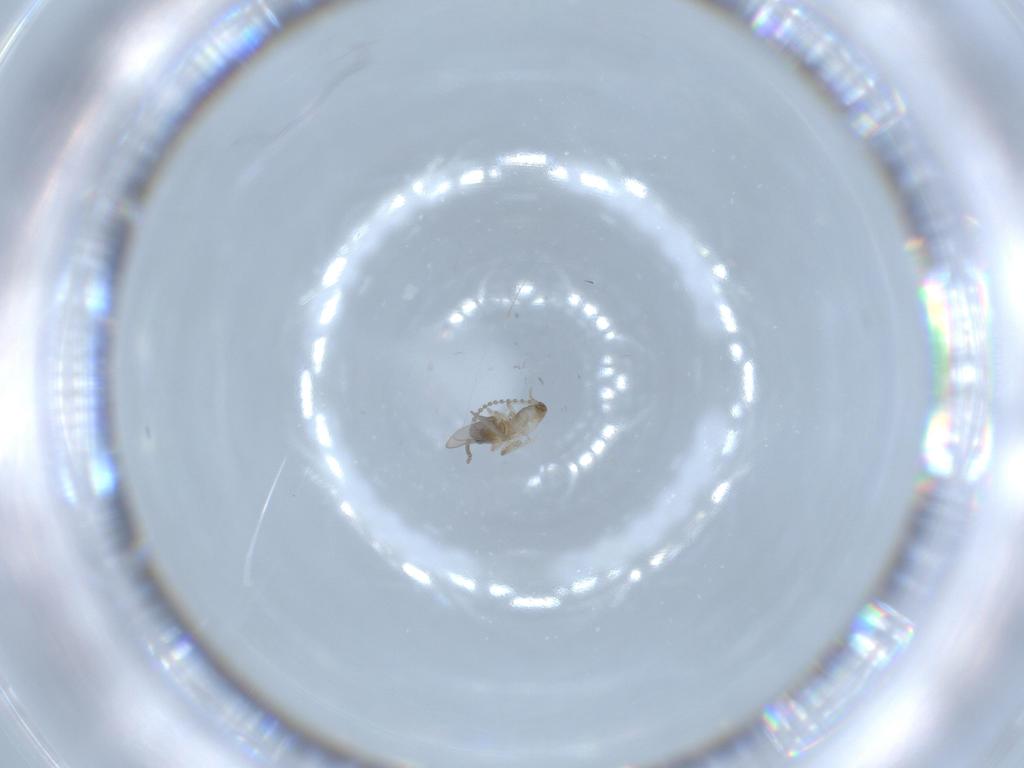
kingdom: Animalia
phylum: Arthropoda
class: Insecta
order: Diptera
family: Cecidomyiidae
